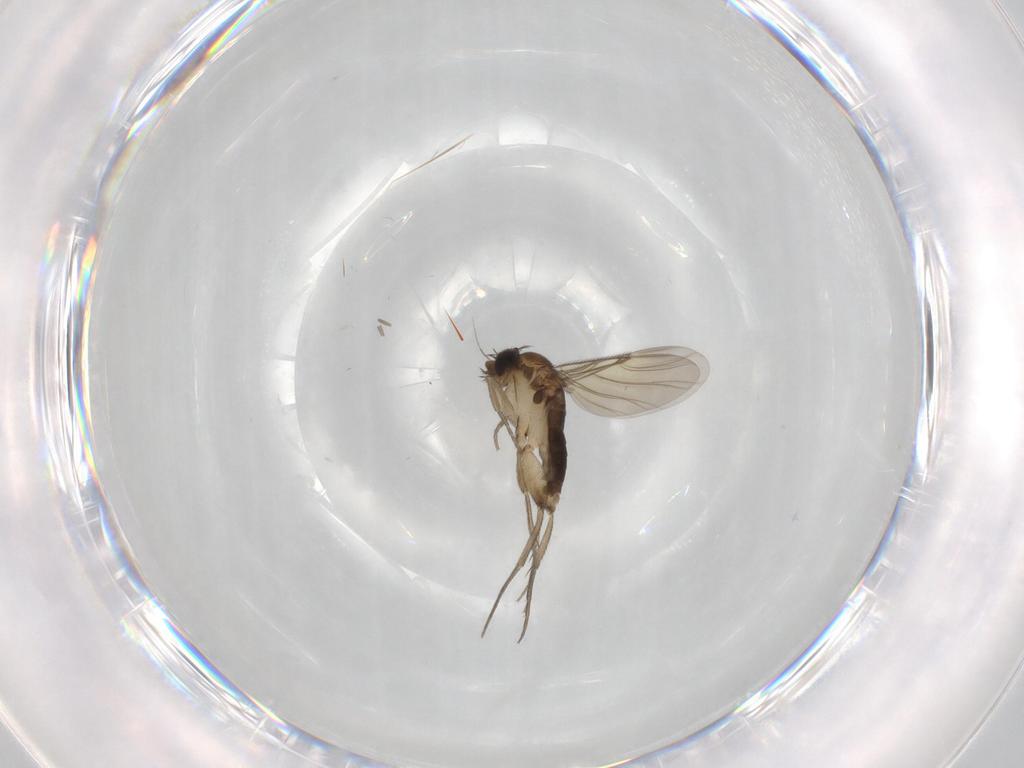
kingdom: Animalia
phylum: Arthropoda
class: Insecta
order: Diptera
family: Phoridae
